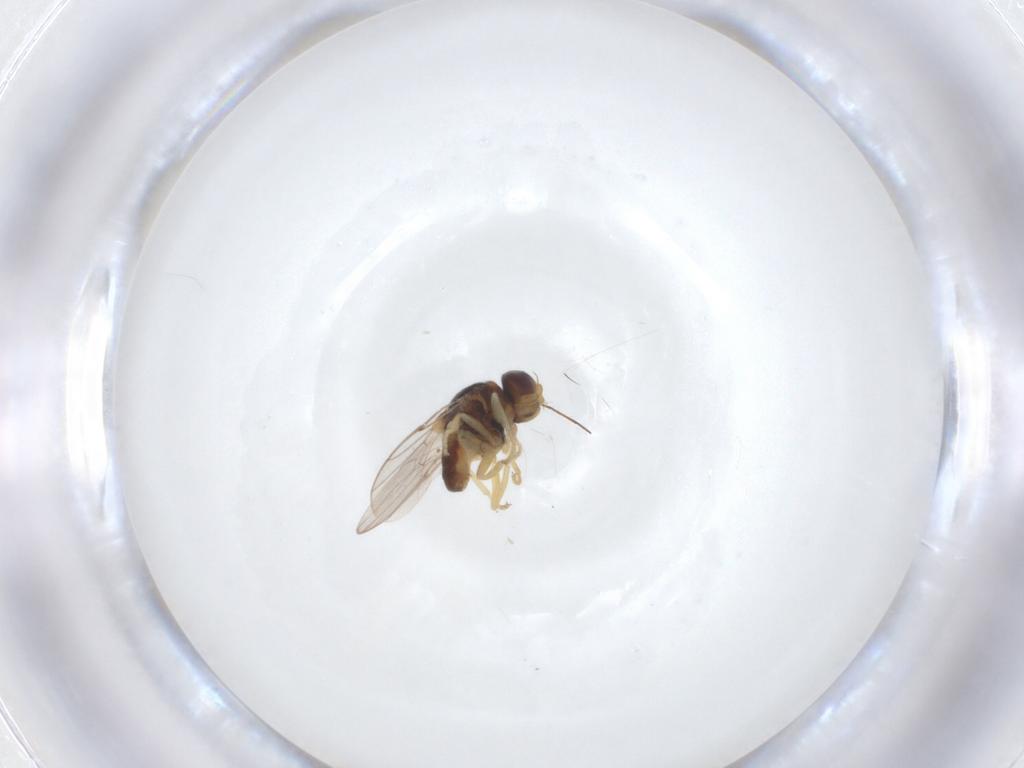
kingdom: Animalia
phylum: Arthropoda
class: Insecta
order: Diptera
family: Chloropidae
